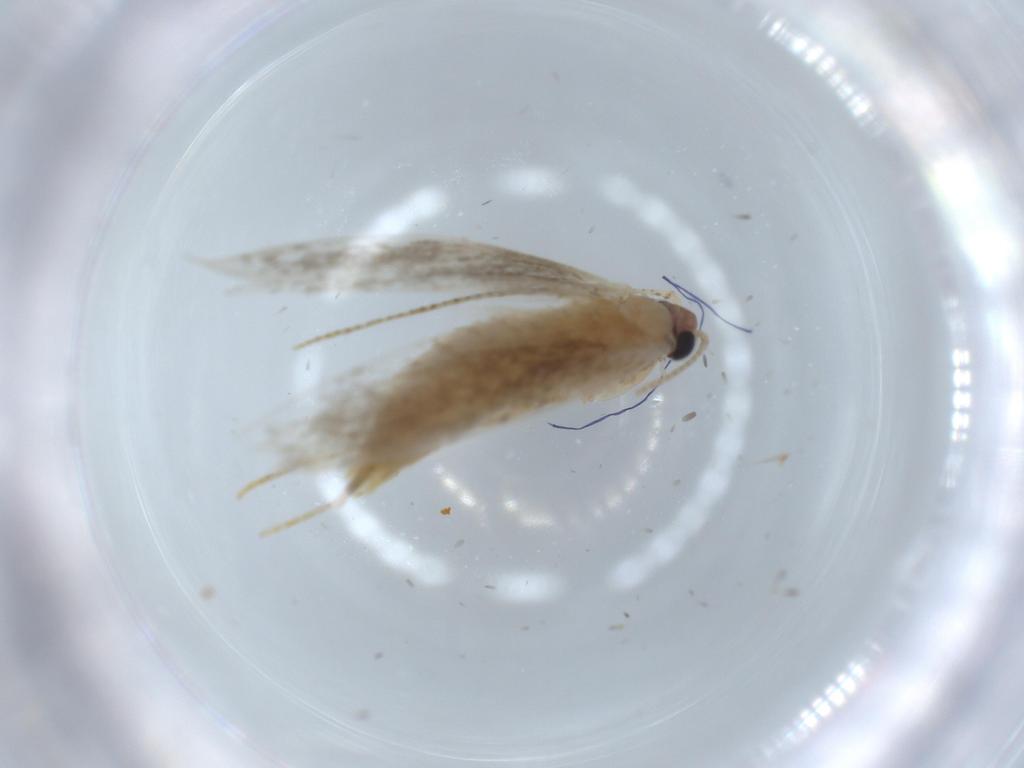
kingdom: Animalia
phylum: Arthropoda
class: Insecta
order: Lepidoptera
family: Tineidae
